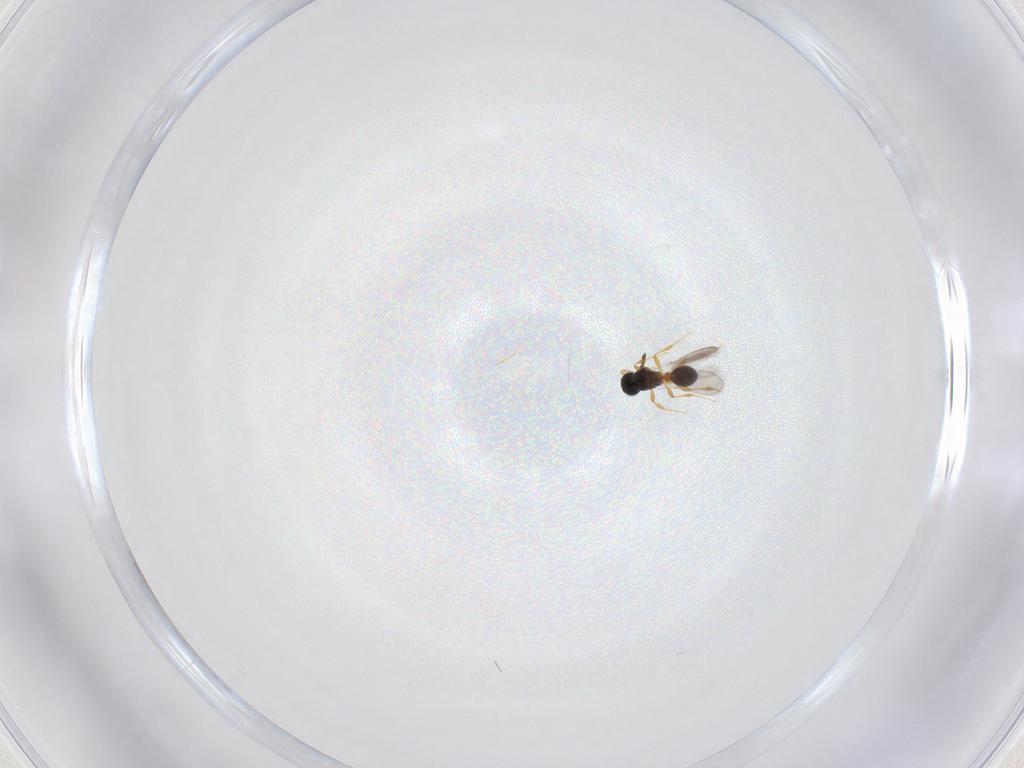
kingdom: Animalia
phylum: Arthropoda
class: Insecta
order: Hymenoptera
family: Platygastridae
